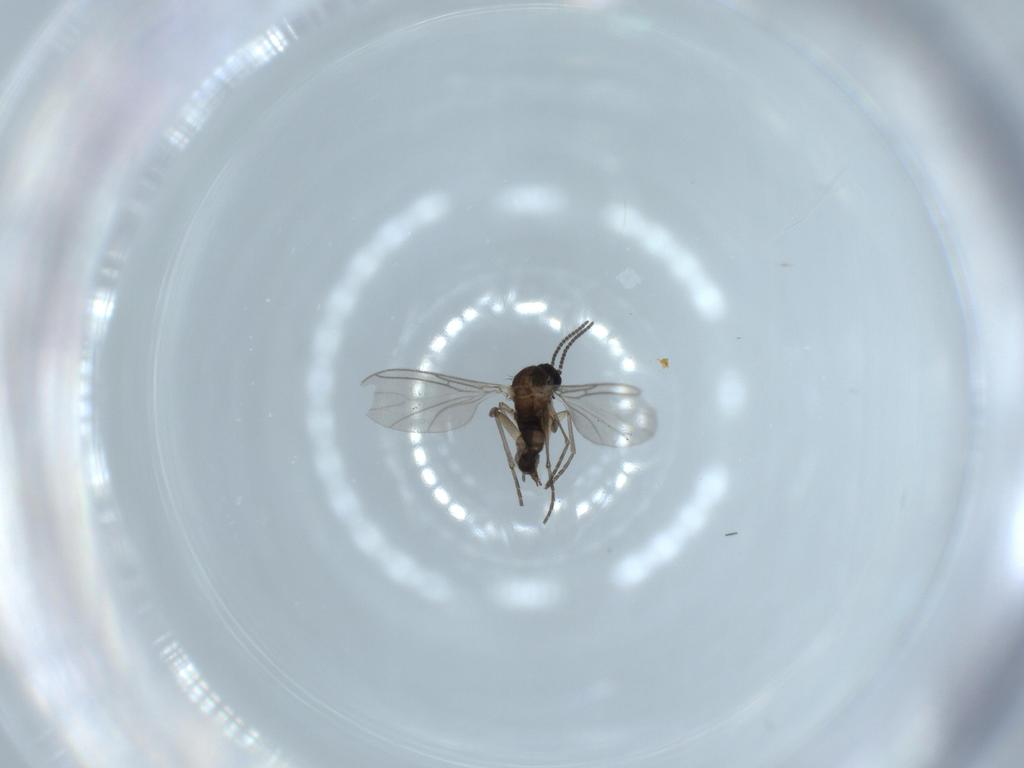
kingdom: Animalia
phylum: Arthropoda
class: Insecta
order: Diptera
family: Sciaridae
